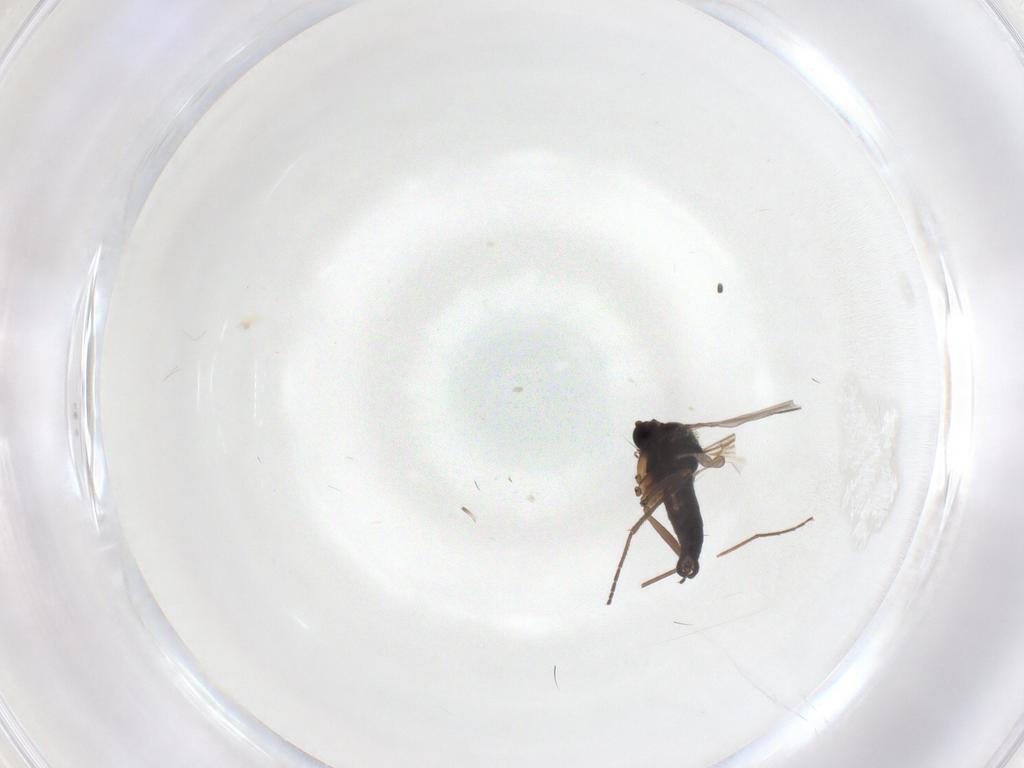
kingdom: Animalia
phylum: Arthropoda
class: Insecta
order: Diptera
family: Sciaridae
